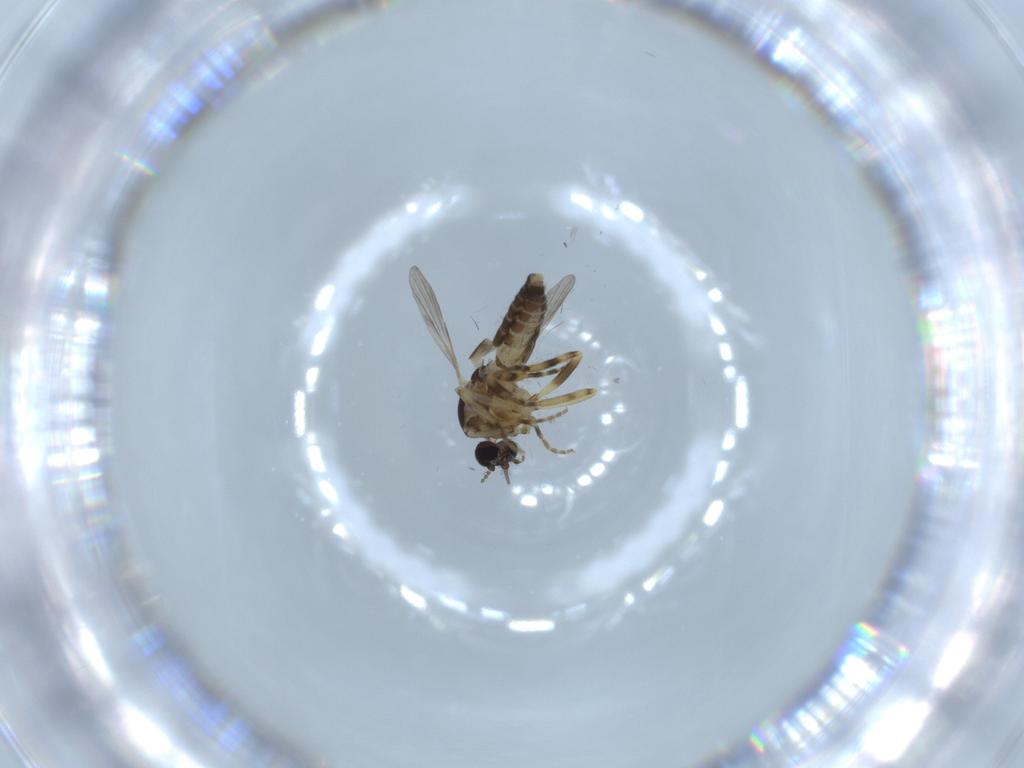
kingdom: Animalia
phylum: Arthropoda
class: Insecta
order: Diptera
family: Ceratopogonidae
